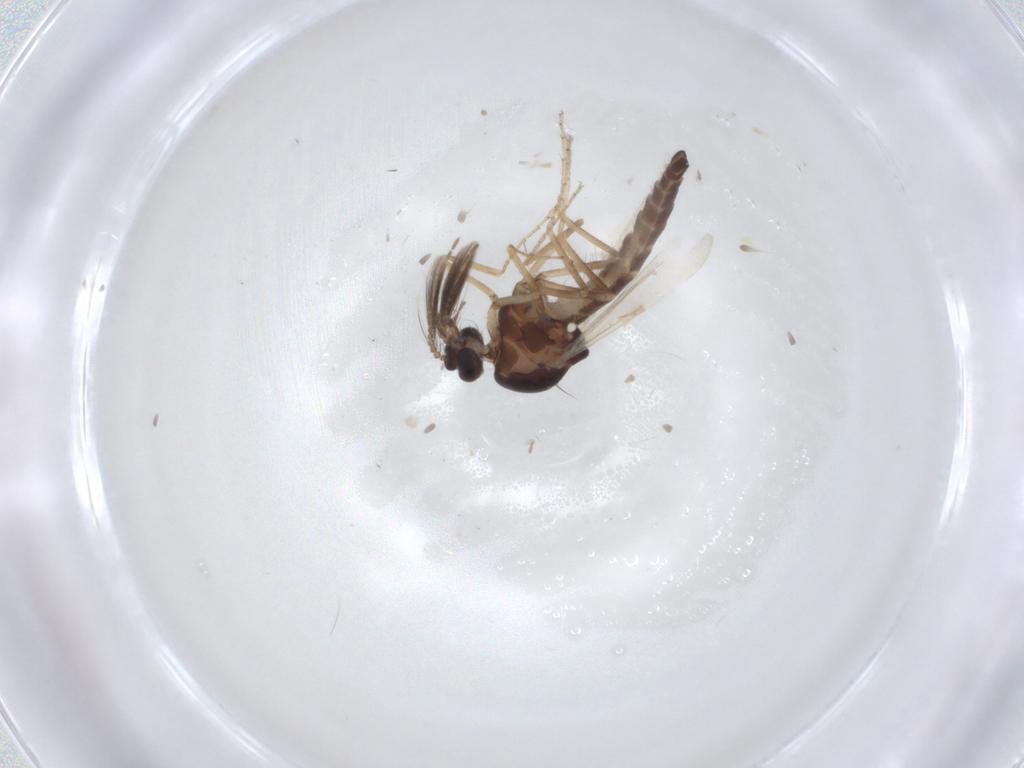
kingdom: Animalia
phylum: Arthropoda
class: Insecta
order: Diptera
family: Ceratopogonidae
